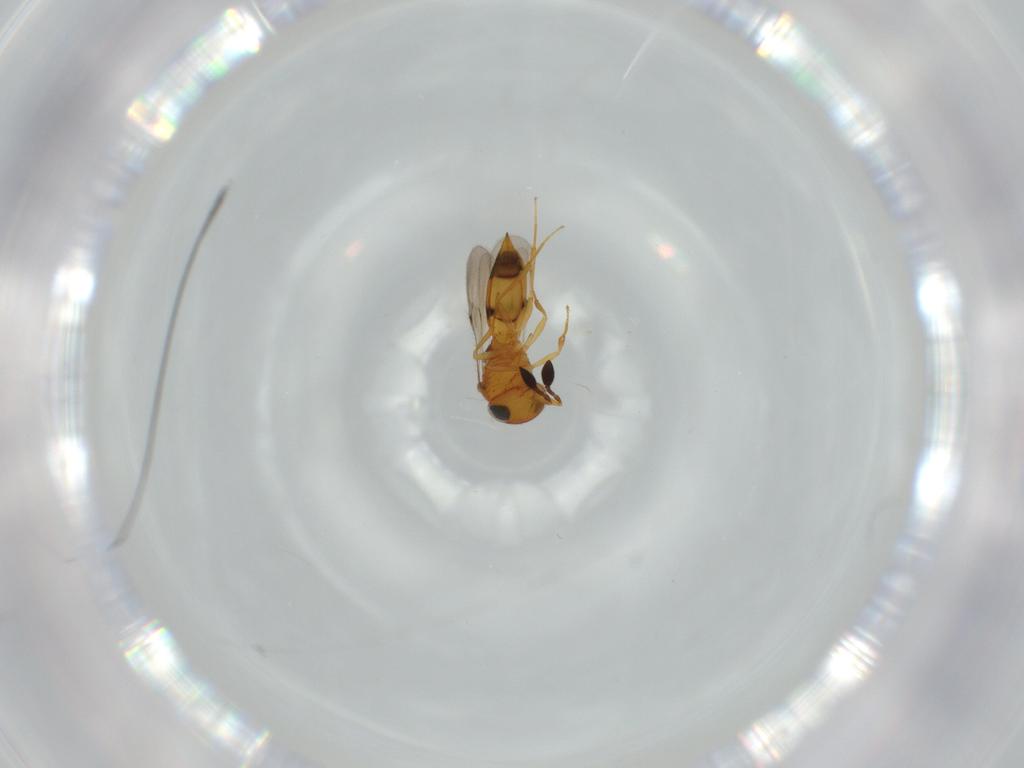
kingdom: Animalia
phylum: Arthropoda
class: Insecta
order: Hymenoptera
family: Scelionidae
